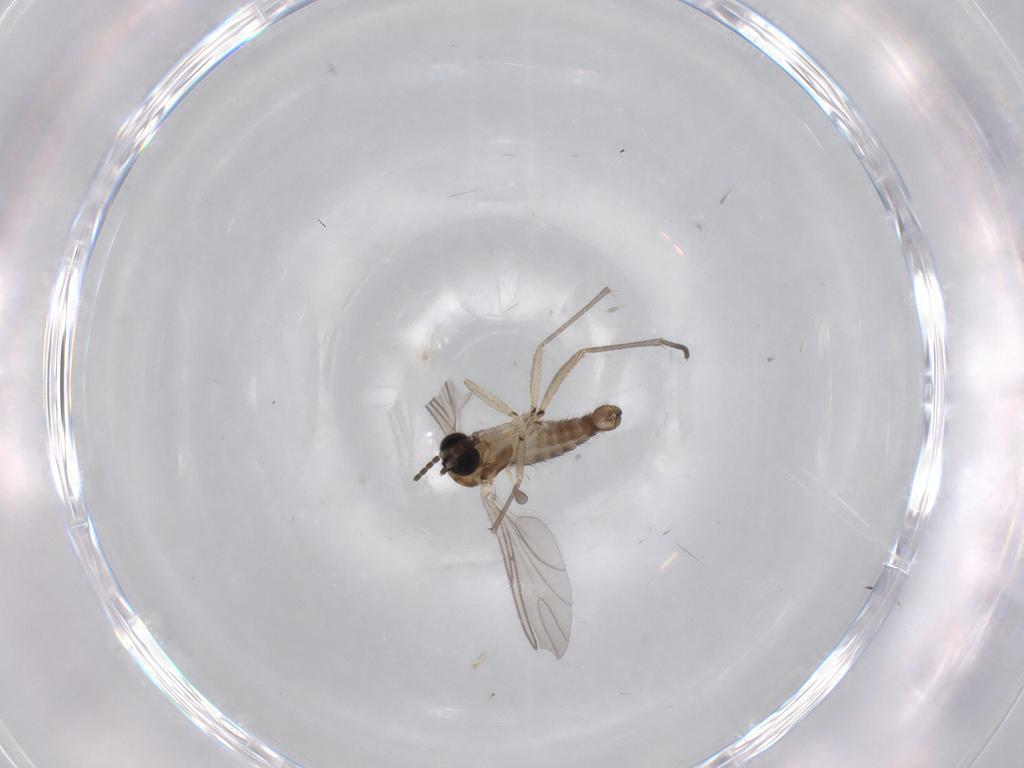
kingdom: Animalia
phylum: Arthropoda
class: Insecta
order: Diptera
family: Sciaridae
